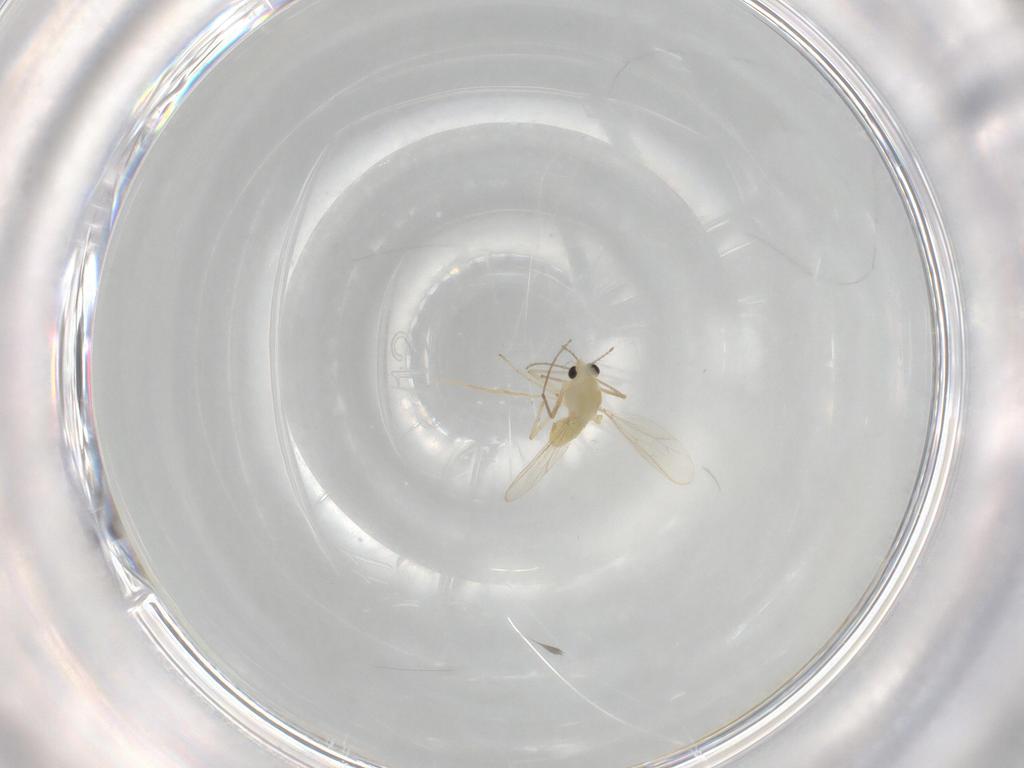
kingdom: Animalia
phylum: Arthropoda
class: Insecta
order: Diptera
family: Chironomidae
